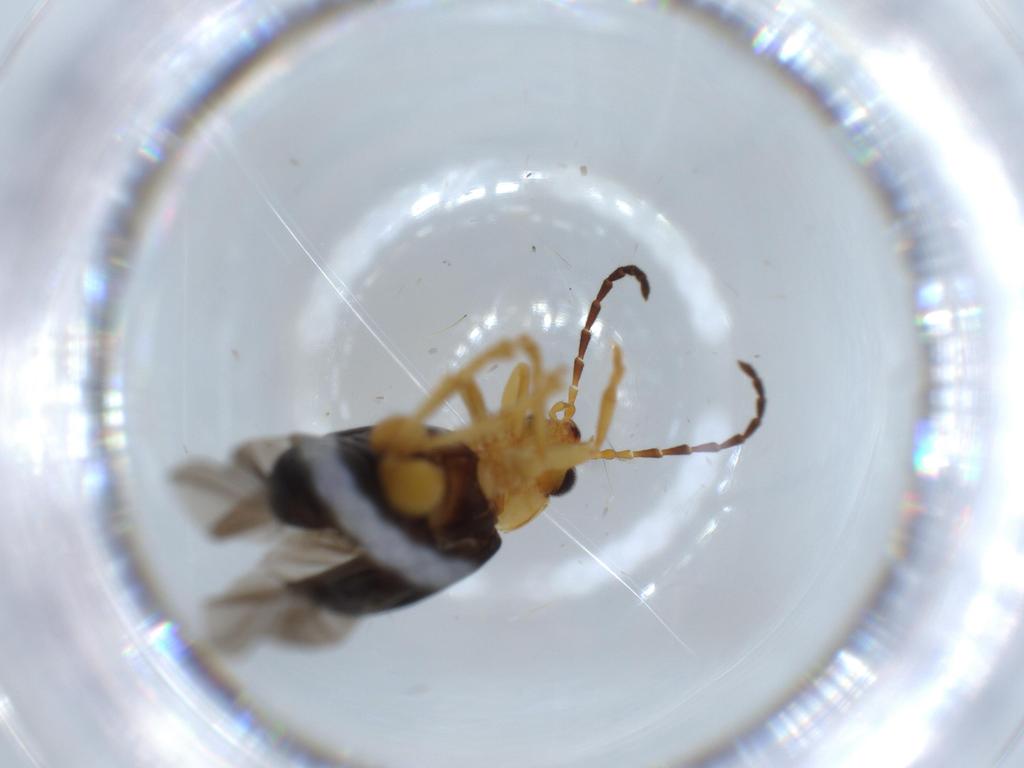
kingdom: Animalia
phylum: Arthropoda
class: Insecta
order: Coleoptera
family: Chrysomelidae
